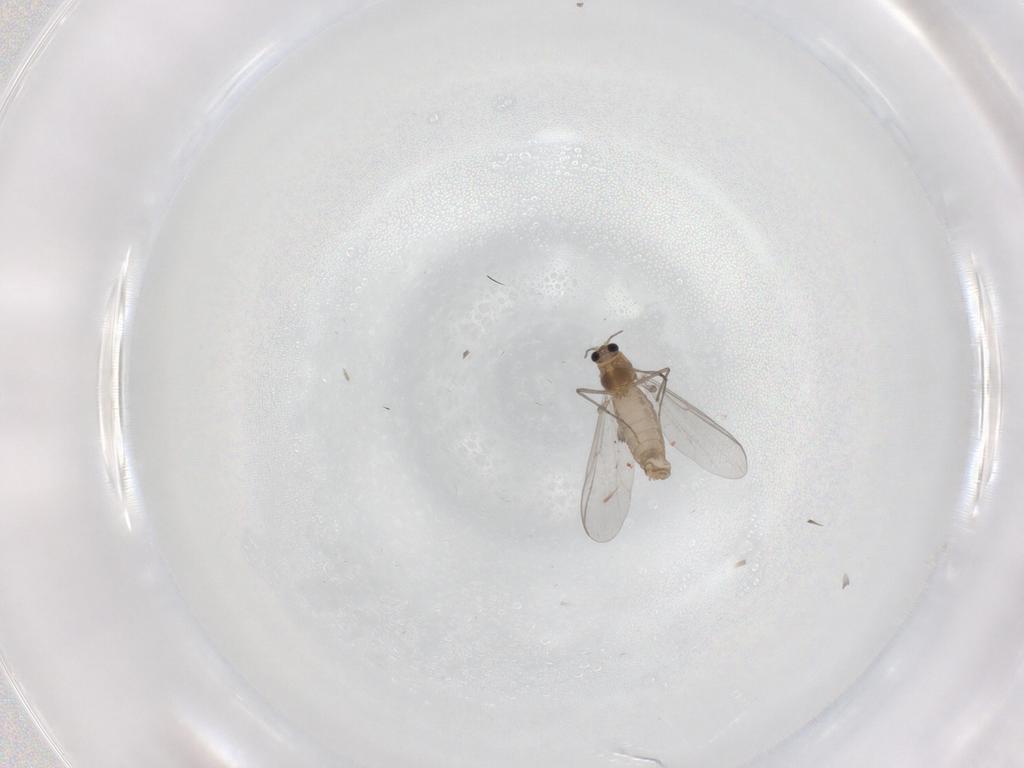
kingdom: Animalia
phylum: Arthropoda
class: Insecta
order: Diptera
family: Chironomidae
